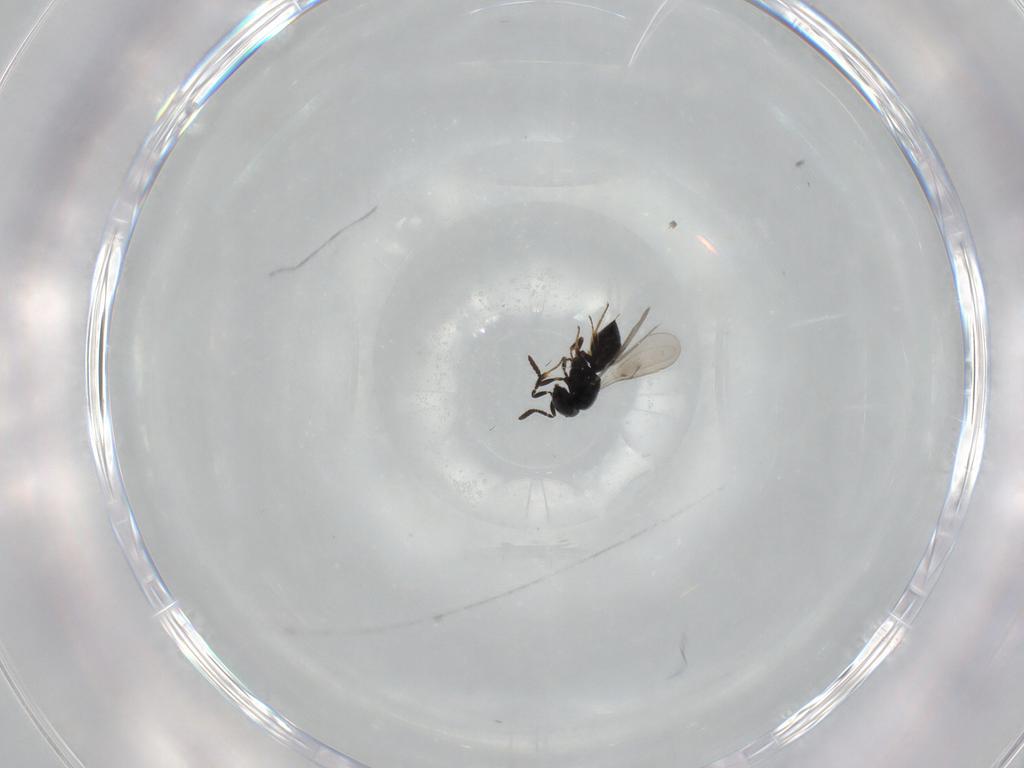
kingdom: Animalia
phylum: Arthropoda
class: Insecta
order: Hymenoptera
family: Scelionidae
